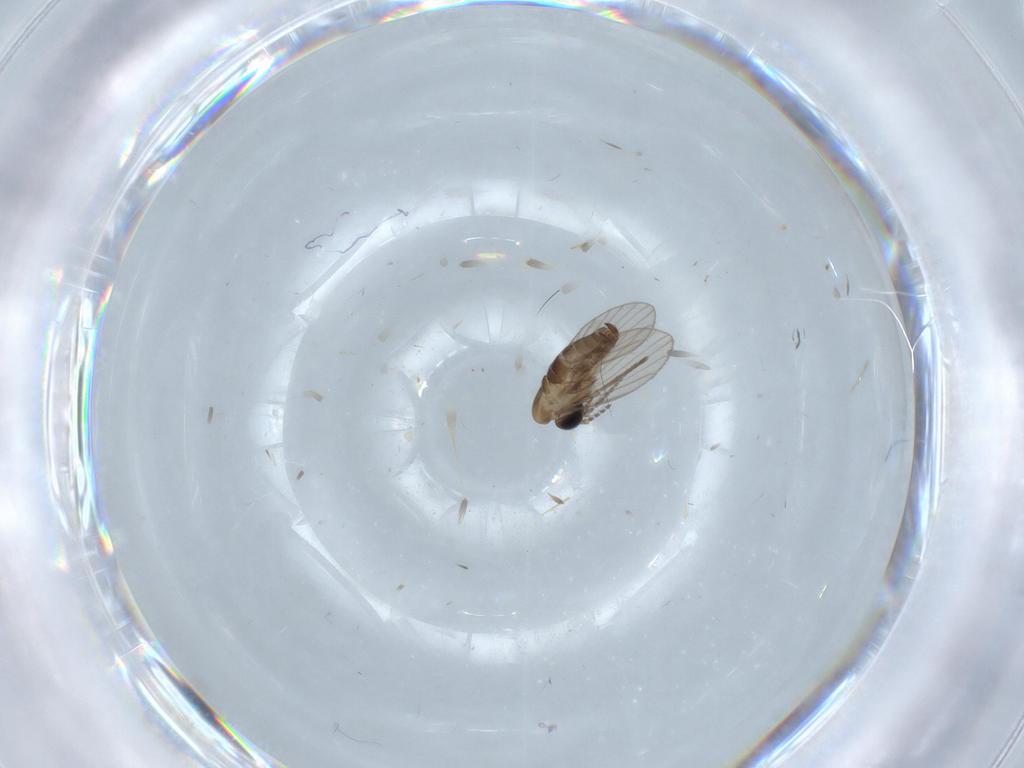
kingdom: Animalia
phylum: Arthropoda
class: Insecta
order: Diptera
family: Psychodidae
